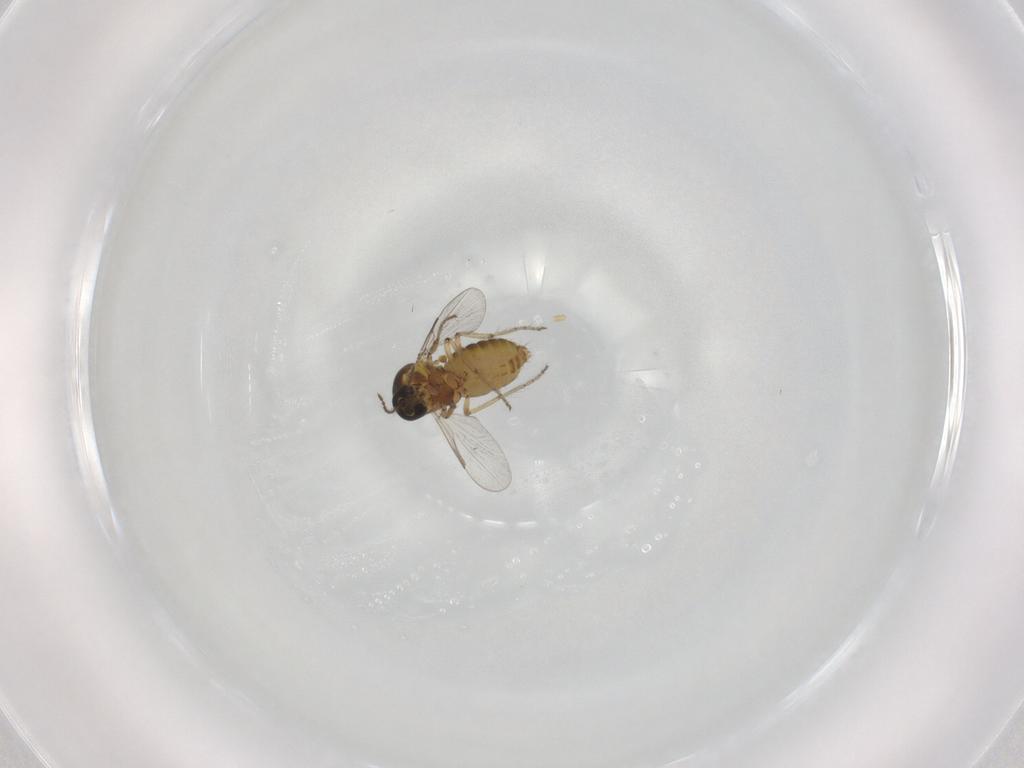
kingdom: Animalia
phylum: Arthropoda
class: Insecta
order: Diptera
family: Ceratopogonidae
